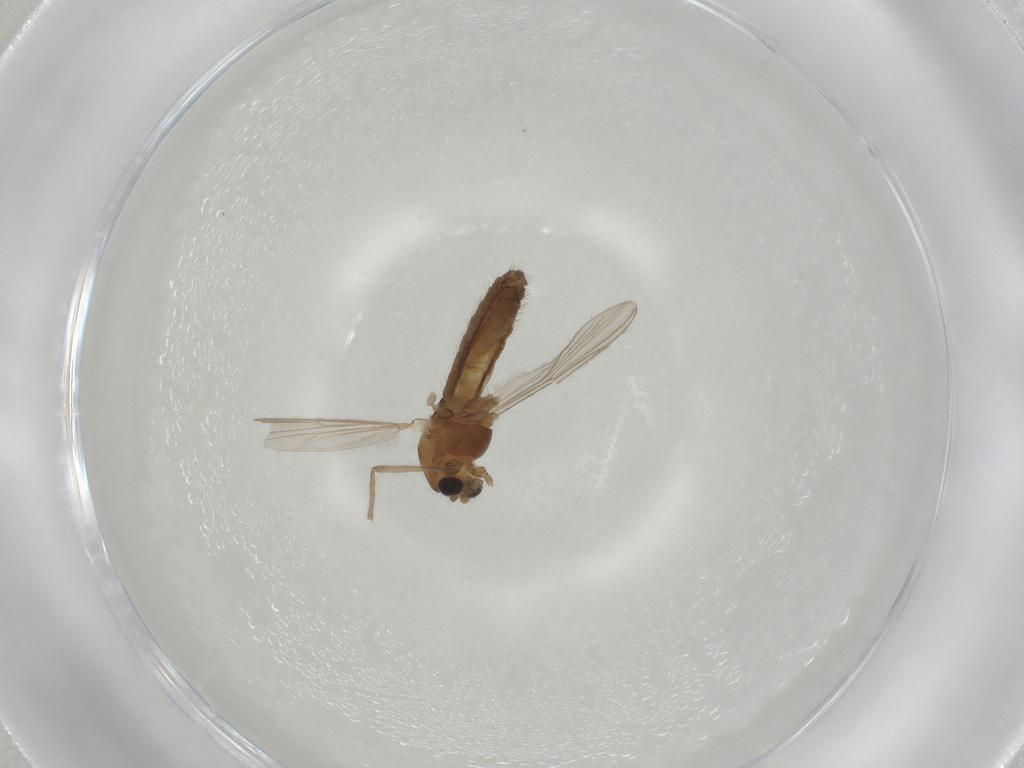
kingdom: Animalia
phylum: Arthropoda
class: Insecta
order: Diptera
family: Chironomidae
